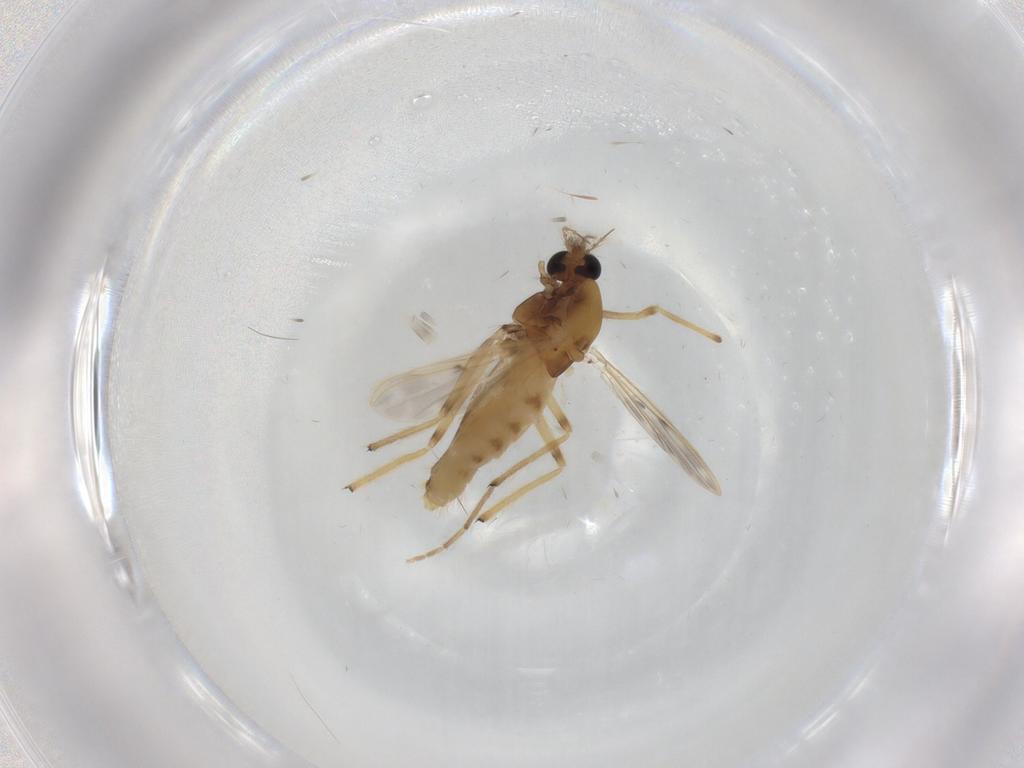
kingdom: Animalia
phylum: Arthropoda
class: Insecta
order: Diptera
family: Chironomidae
